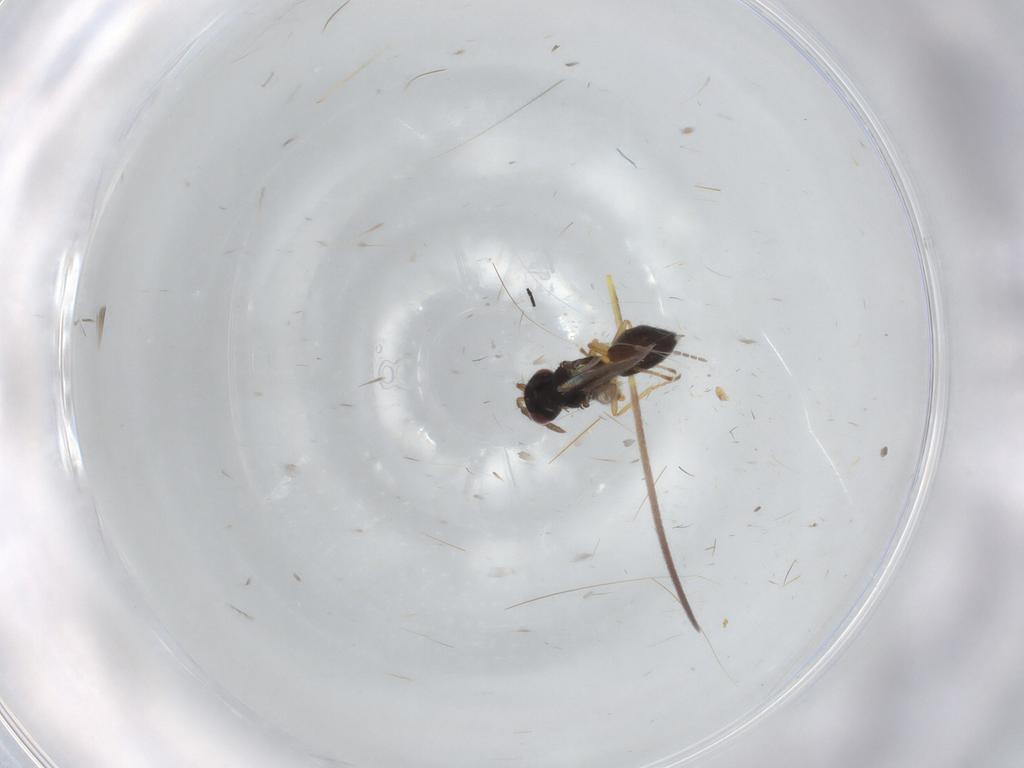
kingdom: Animalia
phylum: Arthropoda
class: Insecta
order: Hymenoptera
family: Eulophidae
